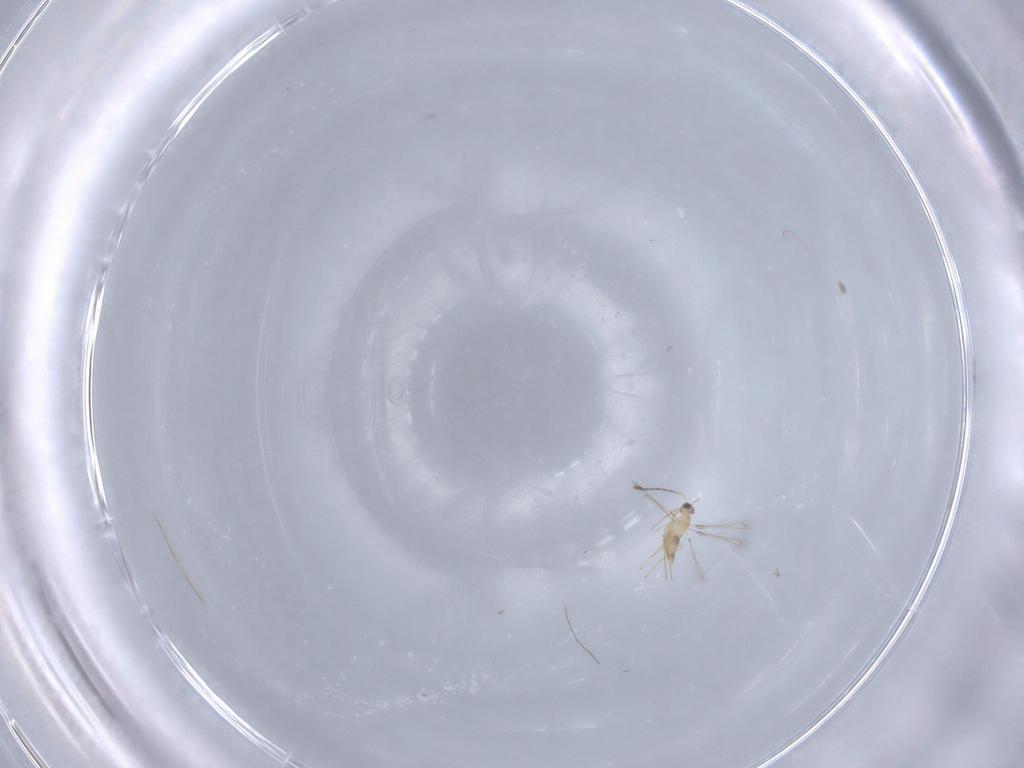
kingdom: Animalia
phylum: Arthropoda
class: Insecta
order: Hymenoptera
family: Mymaridae
